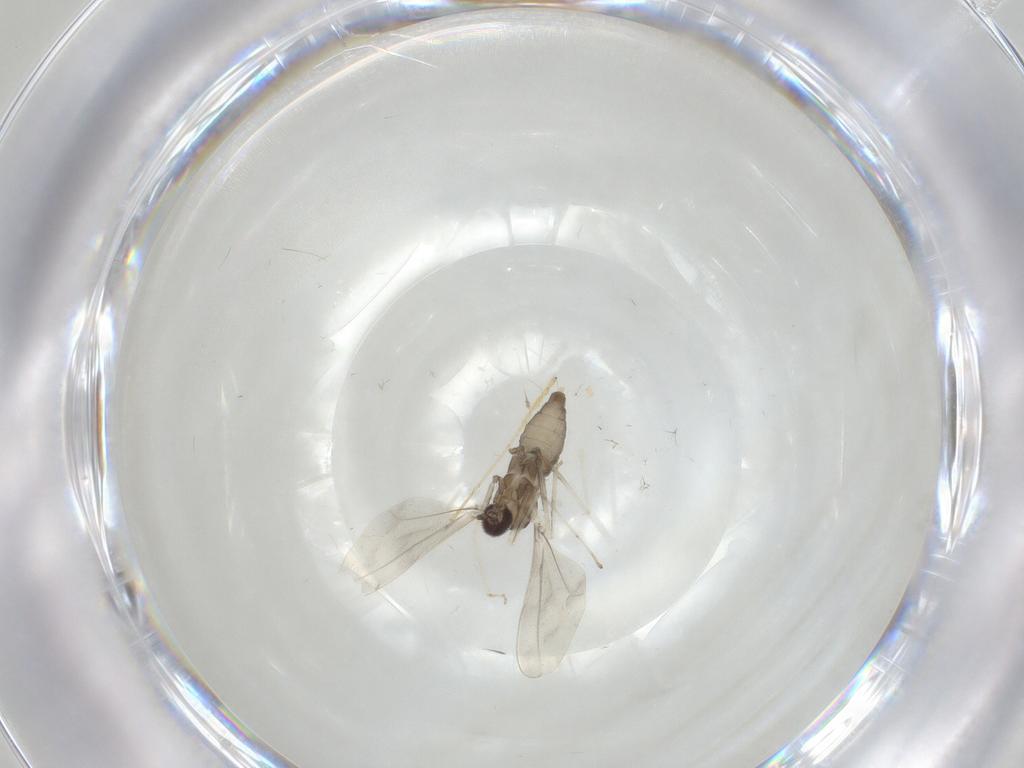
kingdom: Animalia
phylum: Arthropoda
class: Insecta
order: Diptera
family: Cecidomyiidae
